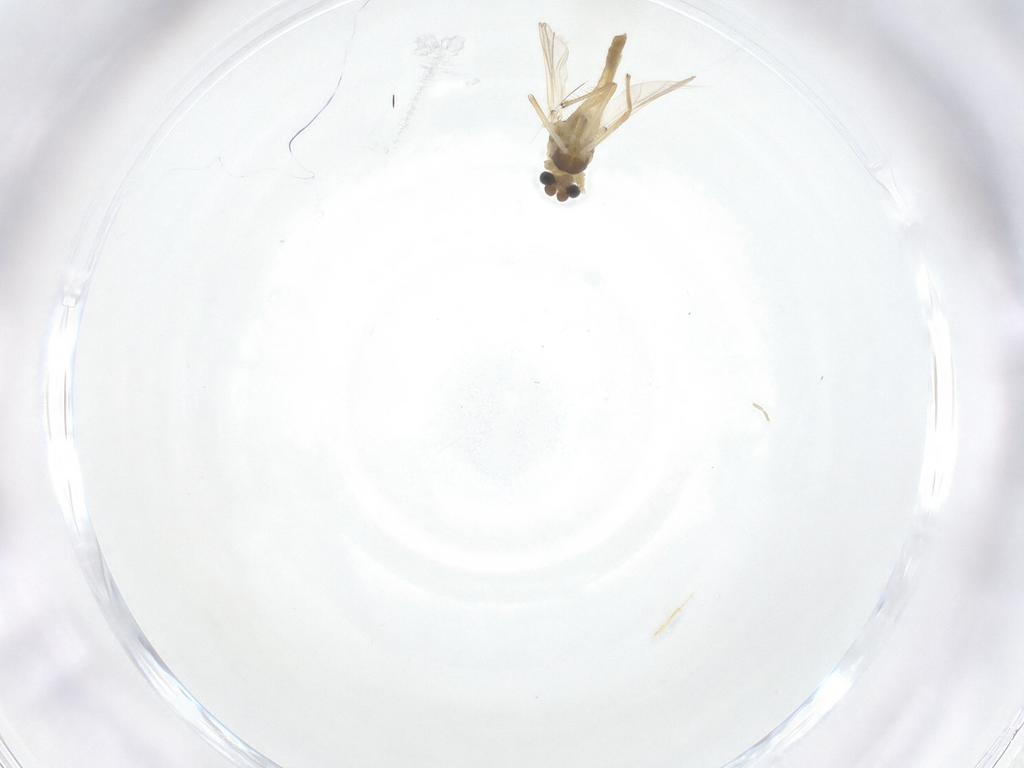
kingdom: Animalia
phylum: Arthropoda
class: Insecta
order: Diptera
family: Chironomidae
